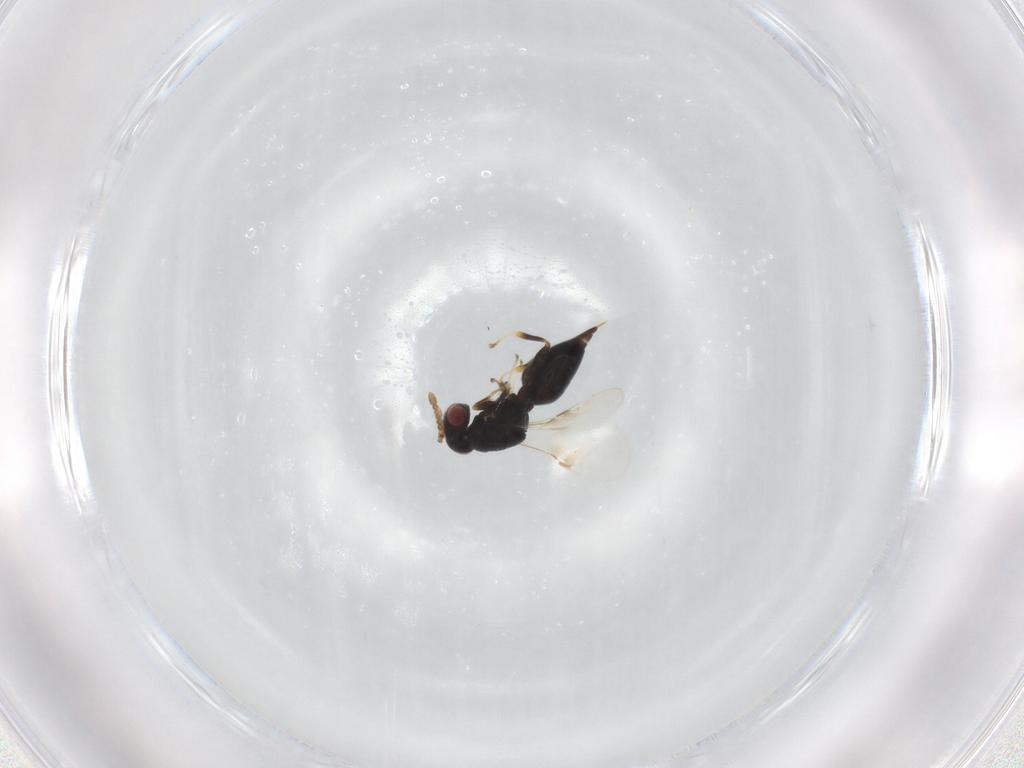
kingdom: Animalia
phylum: Arthropoda
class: Insecta
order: Hymenoptera
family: Eurytomidae
